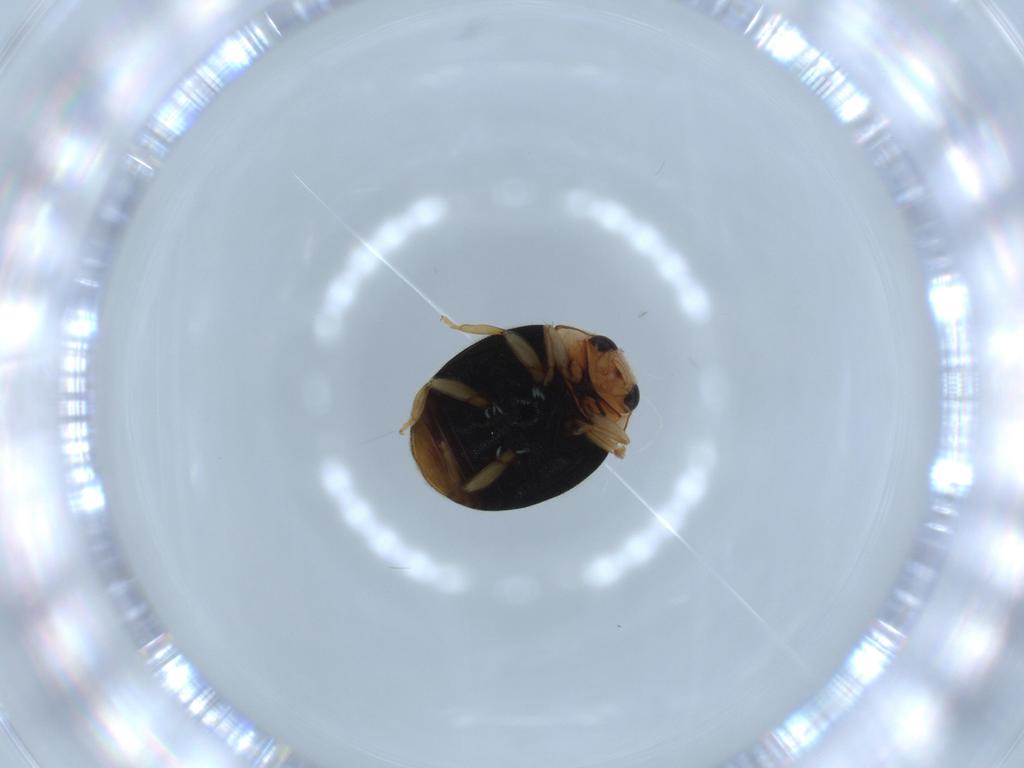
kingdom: Animalia
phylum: Arthropoda
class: Insecta
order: Coleoptera
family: Coccinellidae
